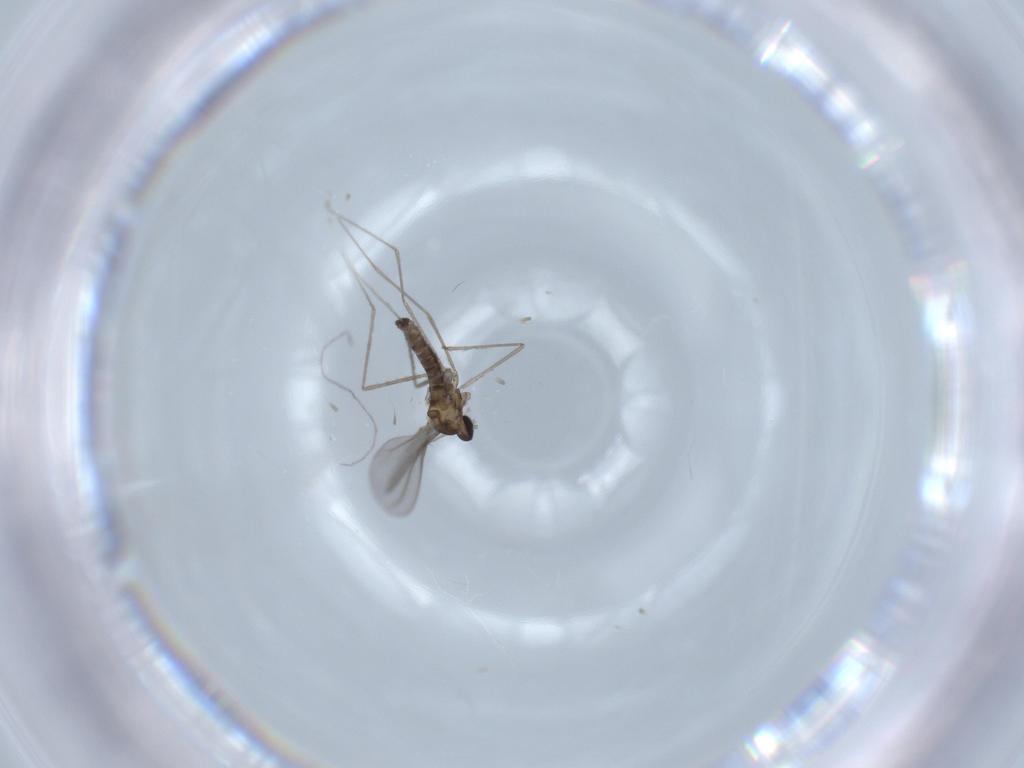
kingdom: Animalia
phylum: Arthropoda
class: Insecta
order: Diptera
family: Cecidomyiidae
